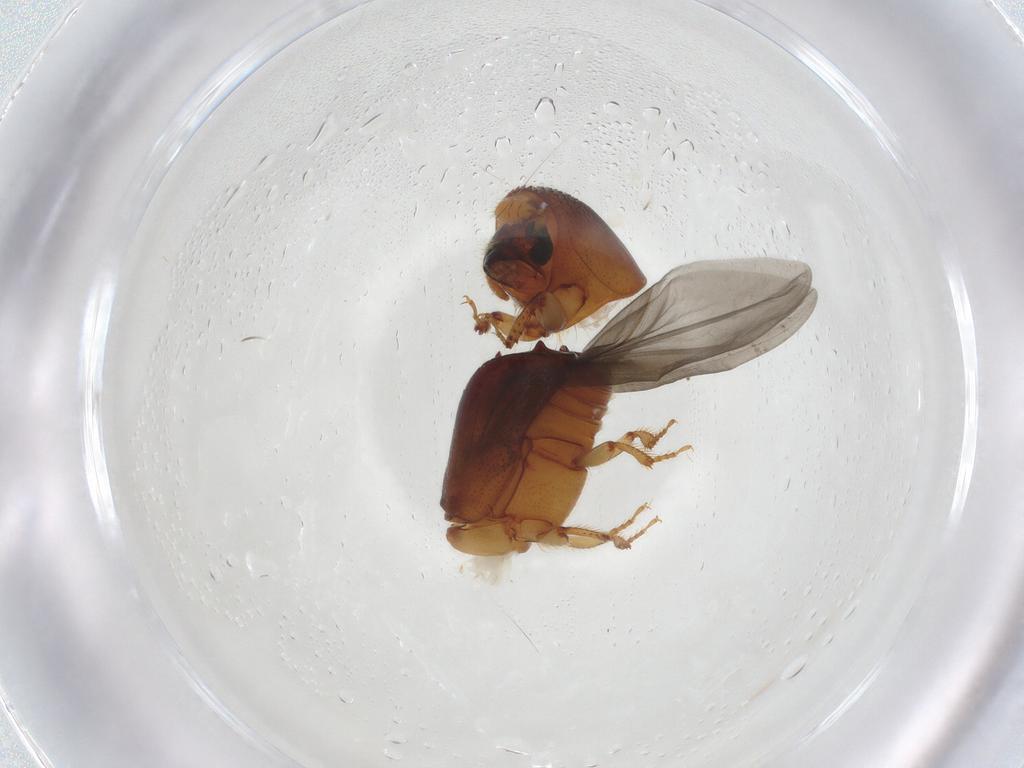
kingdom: Animalia
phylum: Arthropoda
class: Insecta
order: Coleoptera
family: Curculionidae
